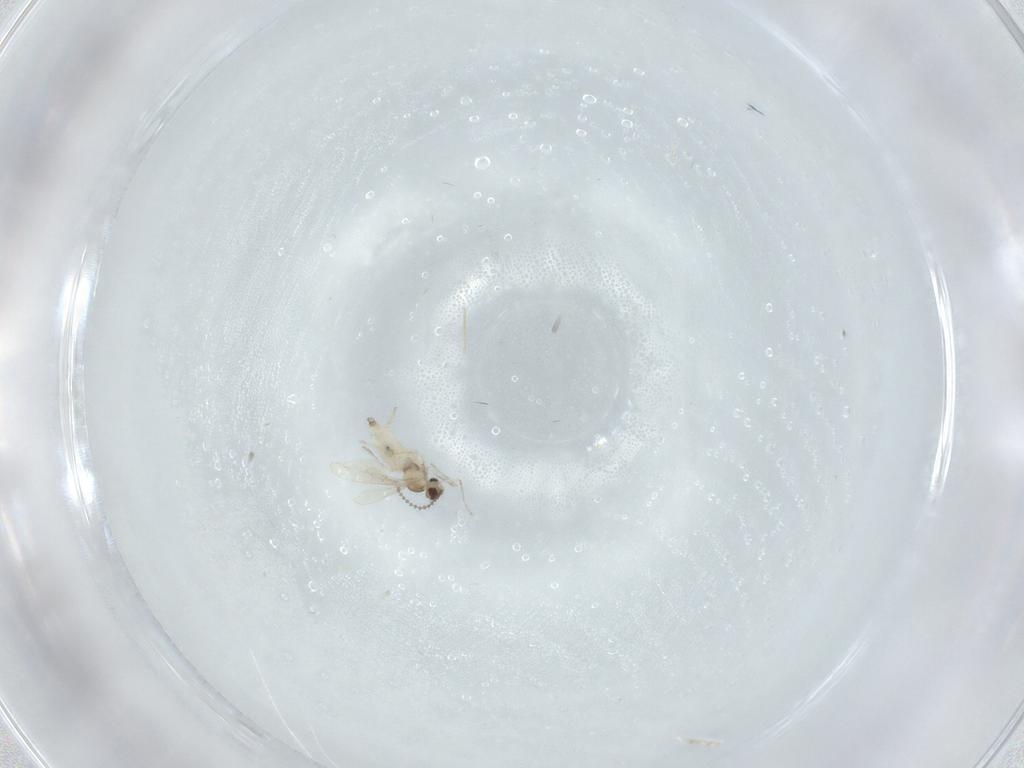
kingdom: Animalia
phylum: Arthropoda
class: Insecta
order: Diptera
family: Cecidomyiidae
